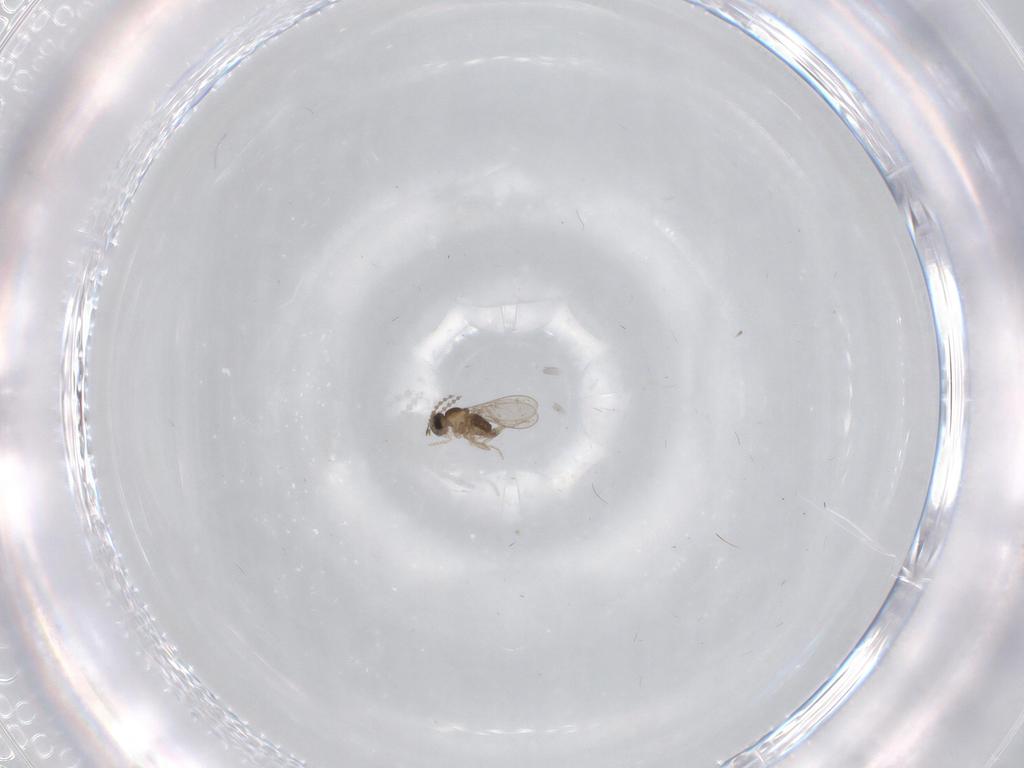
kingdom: Animalia
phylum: Arthropoda
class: Insecta
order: Diptera
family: Cecidomyiidae
